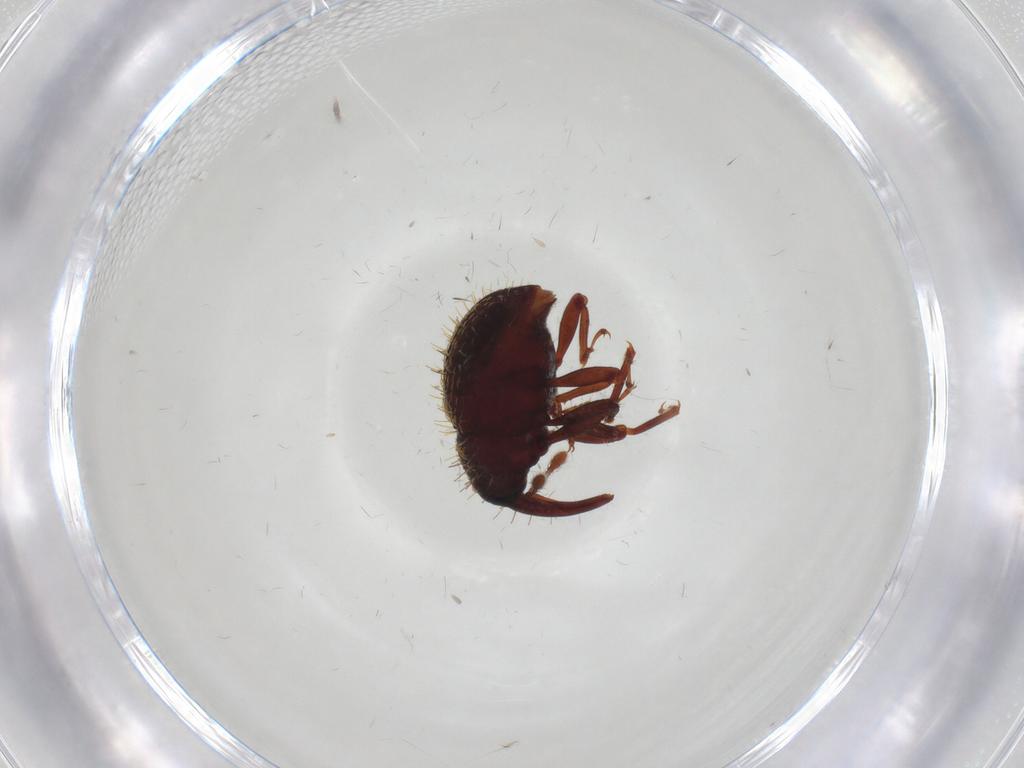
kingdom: Animalia
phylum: Arthropoda
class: Insecta
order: Coleoptera
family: Curculionidae
